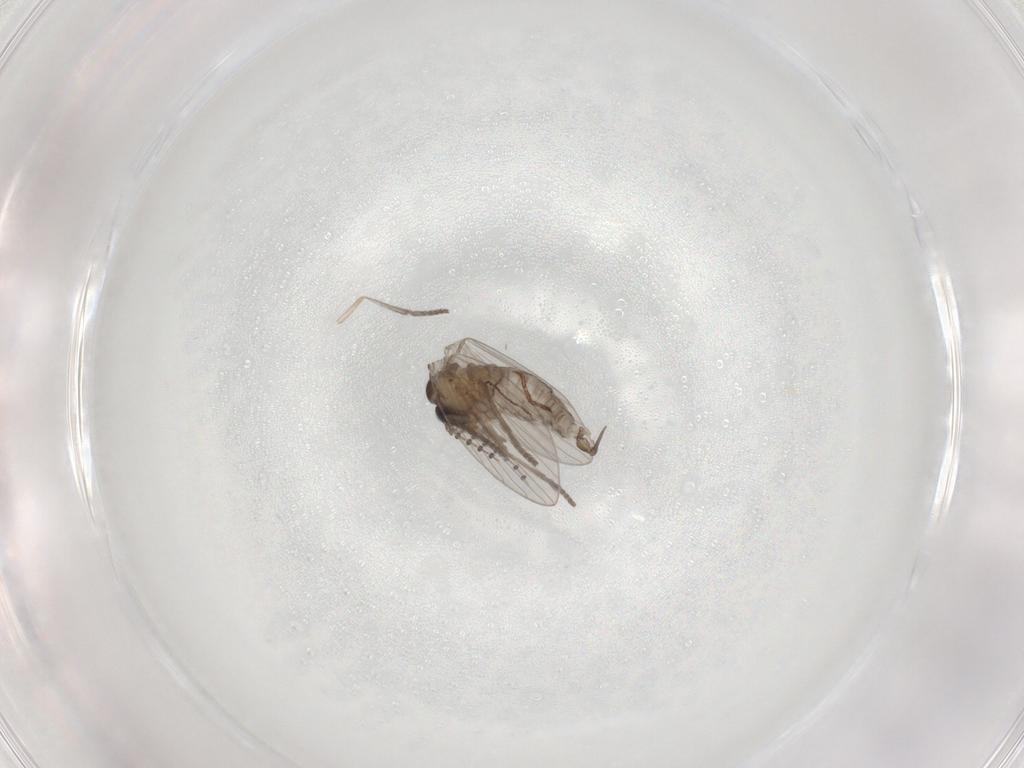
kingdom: Animalia
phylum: Arthropoda
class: Insecta
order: Diptera
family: Psychodidae
